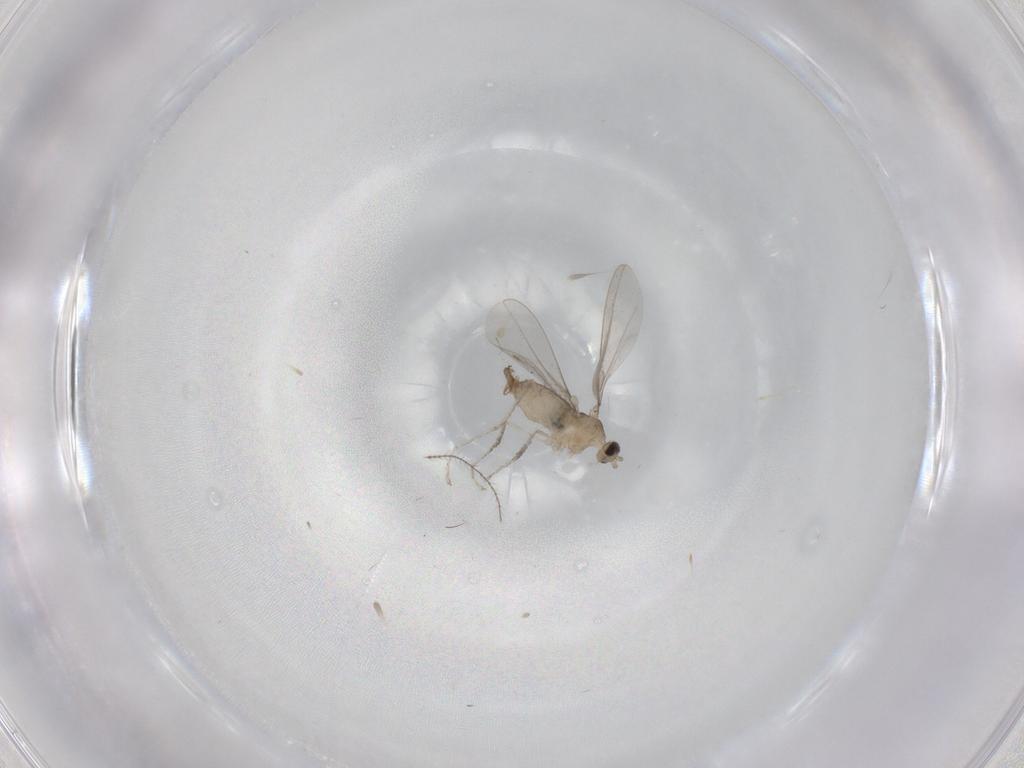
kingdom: Animalia
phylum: Arthropoda
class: Insecta
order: Diptera
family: Cecidomyiidae
